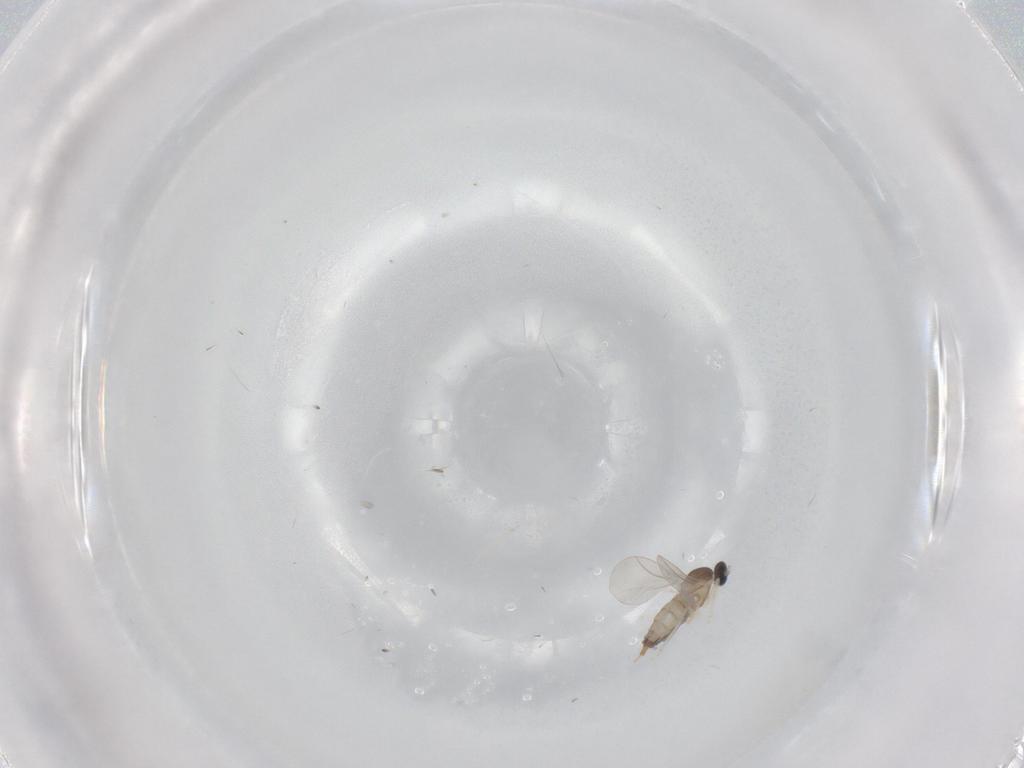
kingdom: Animalia
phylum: Arthropoda
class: Insecta
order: Diptera
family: Cecidomyiidae
